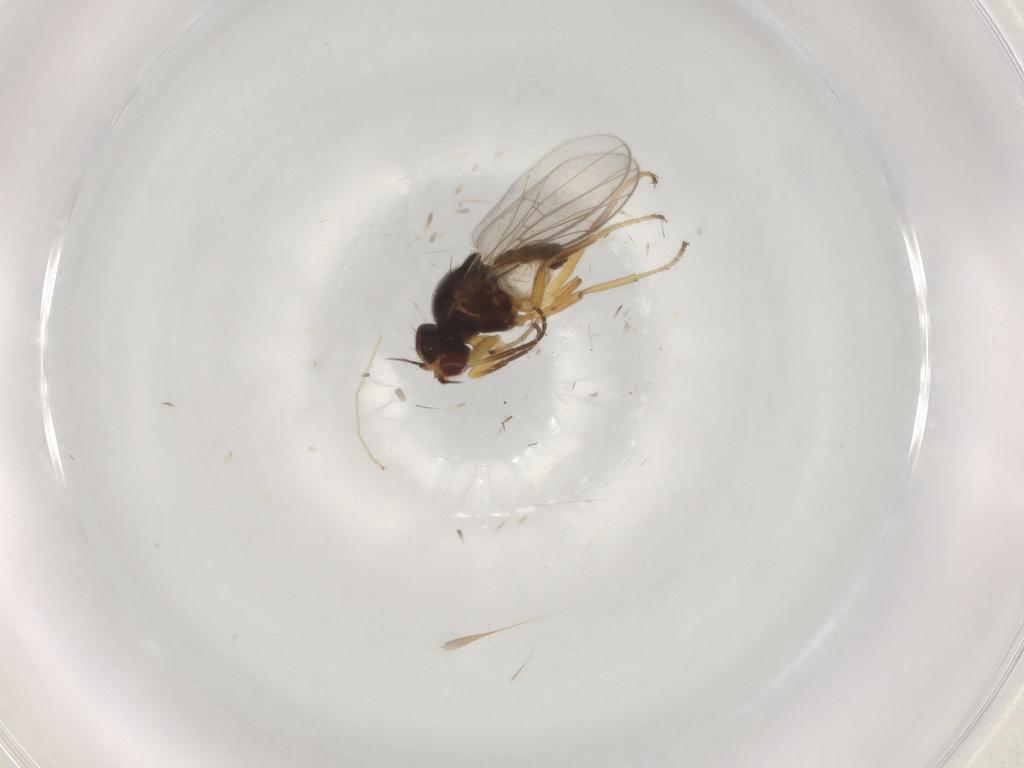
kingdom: Animalia
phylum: Arthropoda
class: Insecta
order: Diptera
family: Chloropidae
